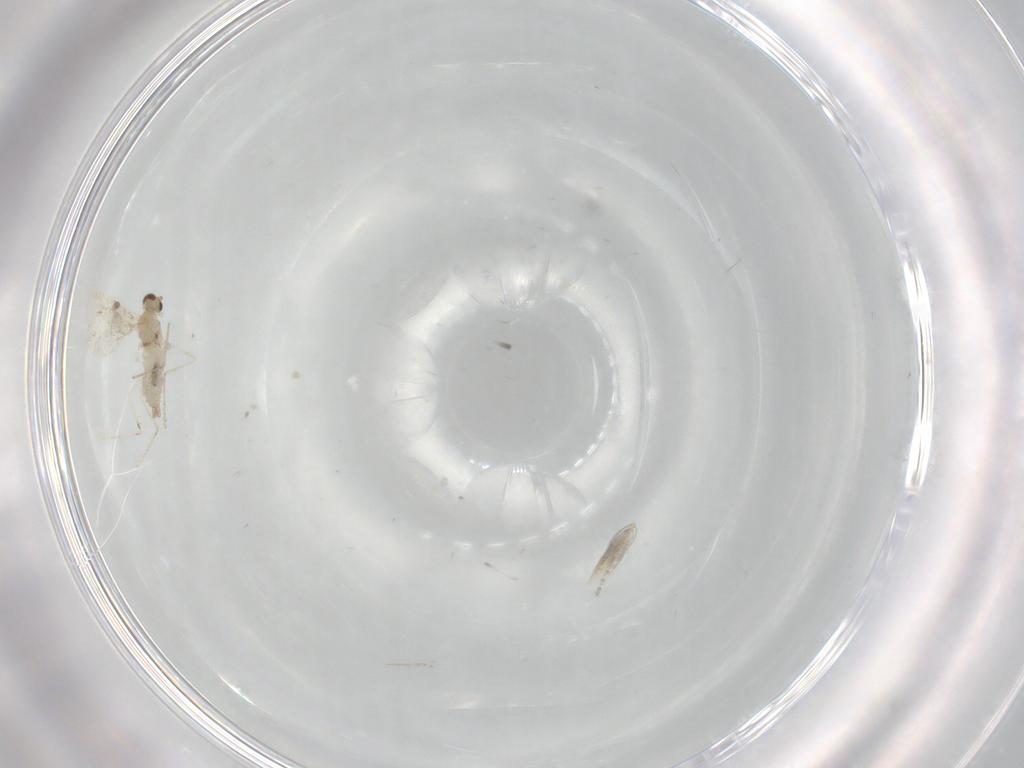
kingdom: Animalia
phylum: Arthropoda
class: Insecta
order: Diptera
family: Cecidomyiidae
